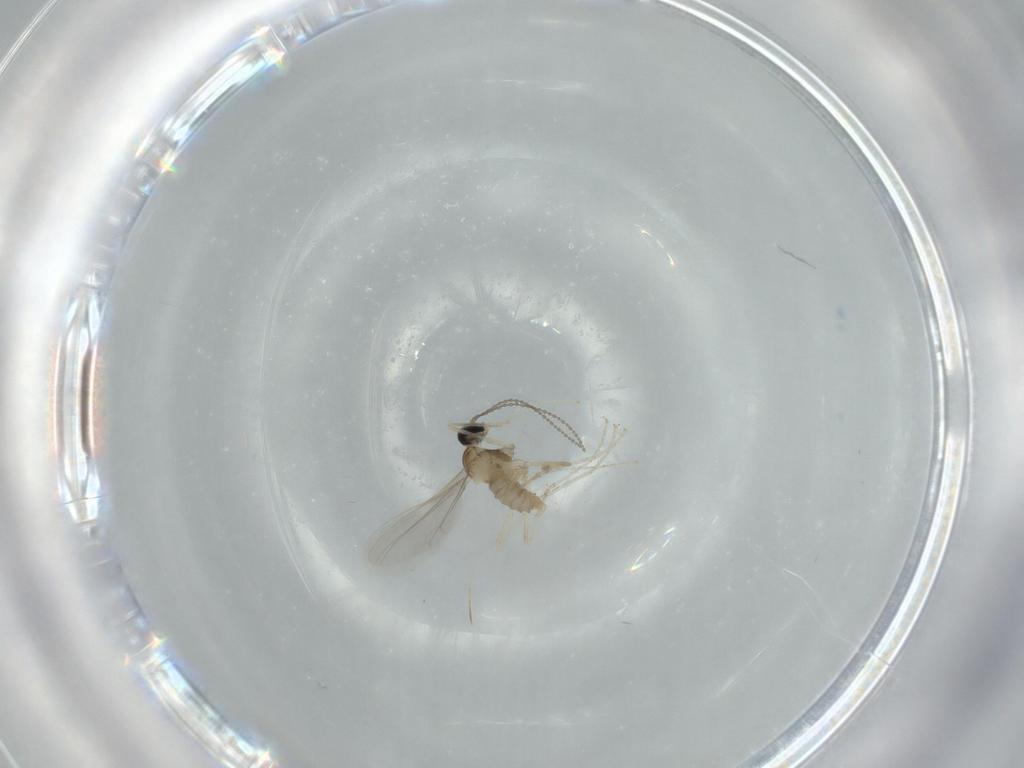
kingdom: Animalia
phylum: Arthropoda
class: Insecta
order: Diptera
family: Cecidomyiidae
